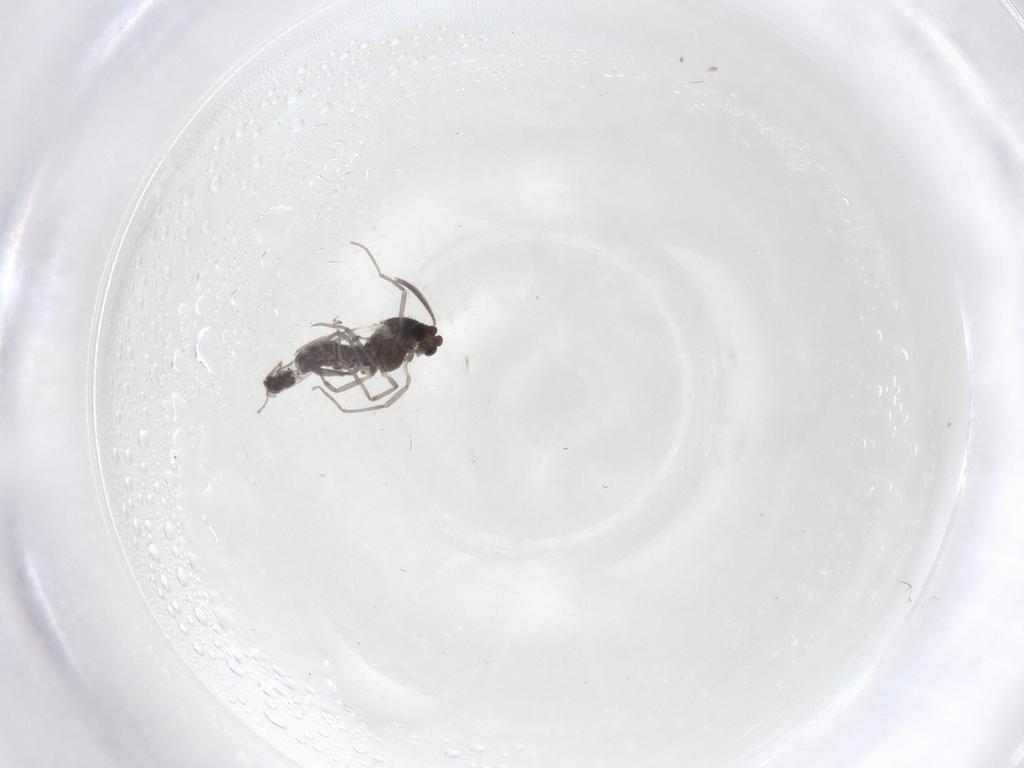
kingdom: Animalia
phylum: Arthropoda
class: Insecta
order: Diptera
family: Chironomidae
